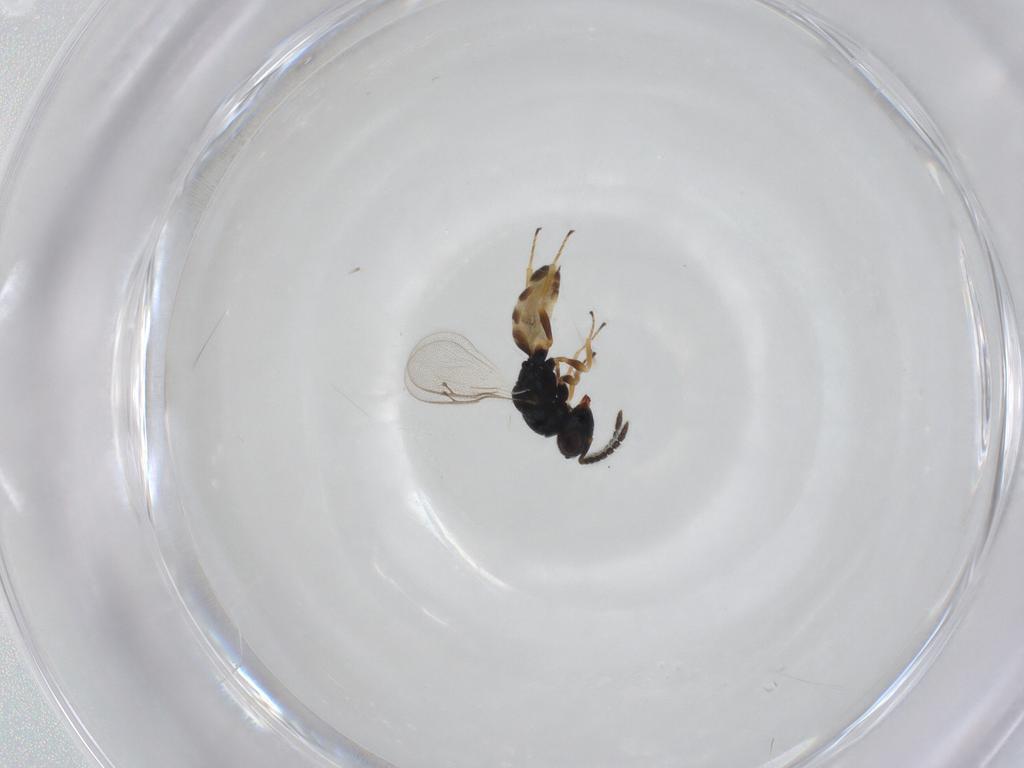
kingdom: Animalia
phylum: Arthropoda
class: Insecta
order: Hymenoptera
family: Pteromalidae
